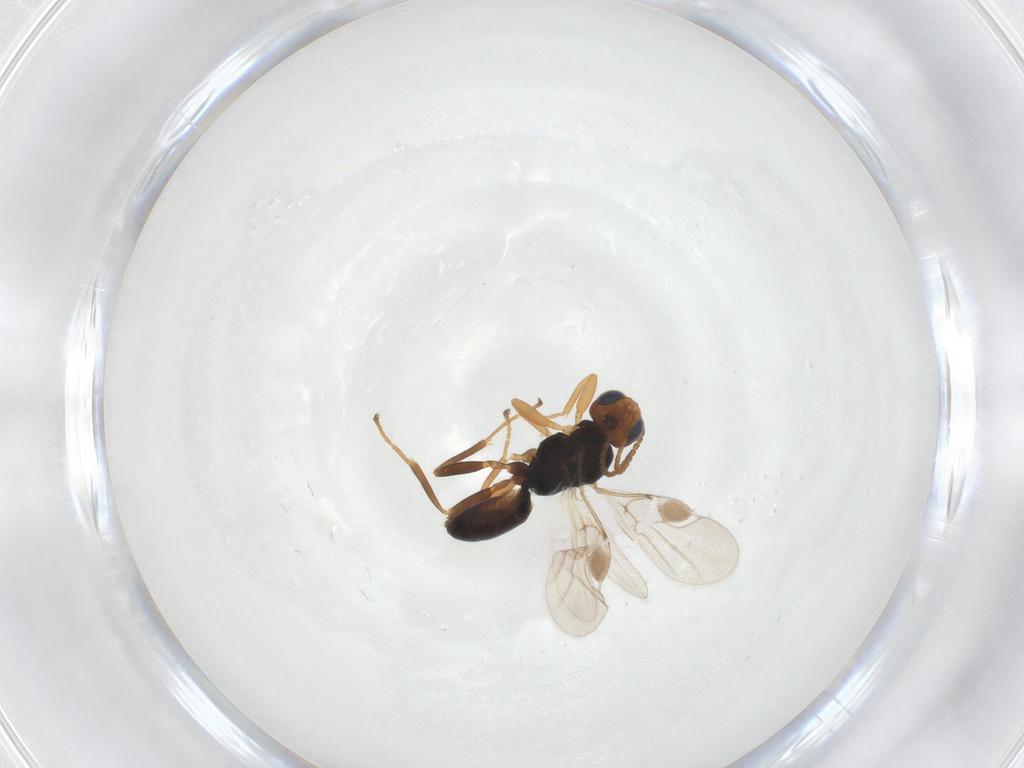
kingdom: Animalia
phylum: Arthropoda
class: Insecta
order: Hymenoptera
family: Braconidae
